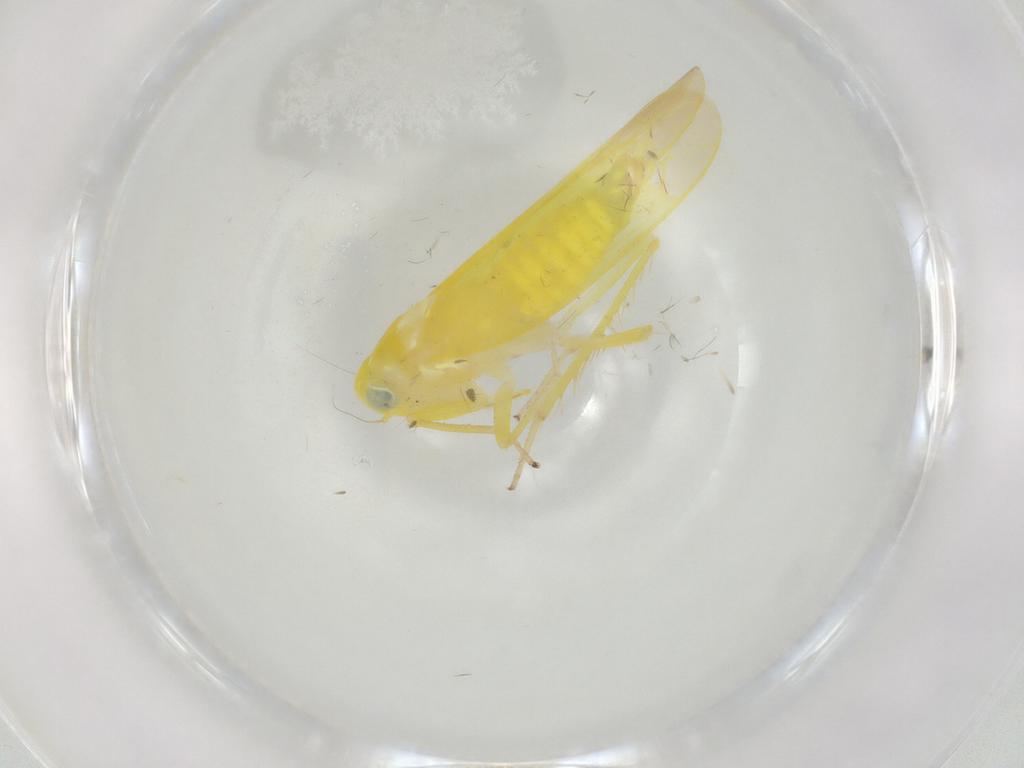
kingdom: Animalia
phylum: Arthropoda
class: Insecta
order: Hemiptera
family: Cicadellidae
